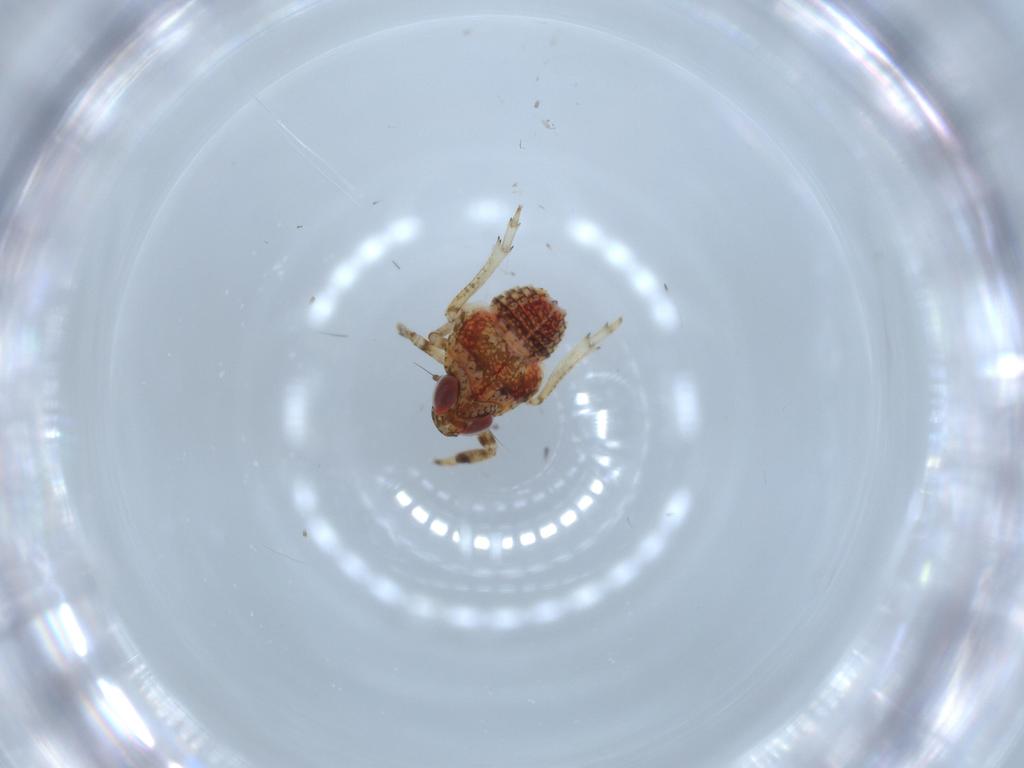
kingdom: Animalia
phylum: Arthropoda
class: Insecta
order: Hemiptera
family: Issidae
